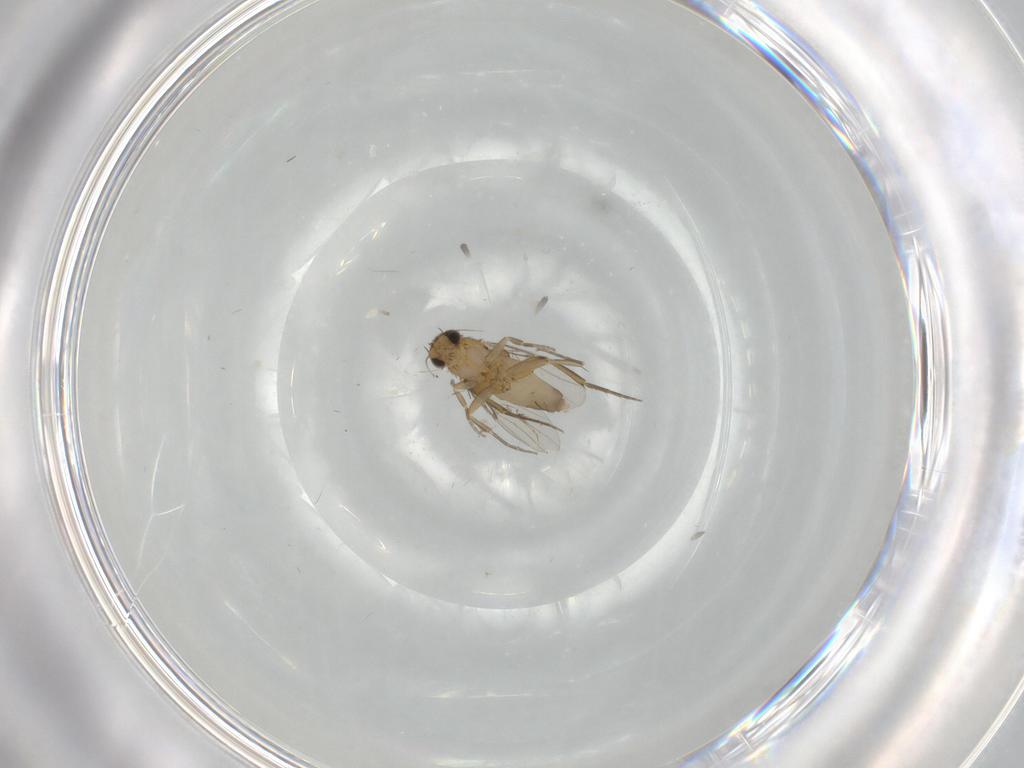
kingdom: Animalia
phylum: Arthropoda
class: Insecta
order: Diptera
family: Chironomidae
